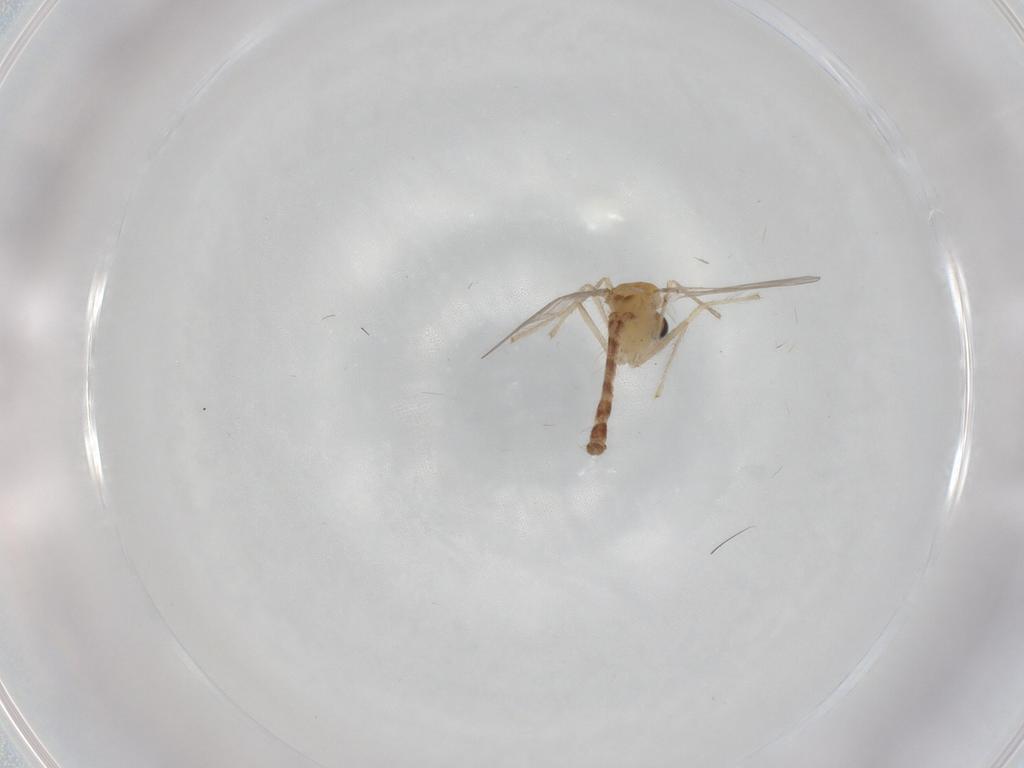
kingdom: Animalia
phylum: Arthropoda
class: Insecta
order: Diptera
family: Chironomidae
